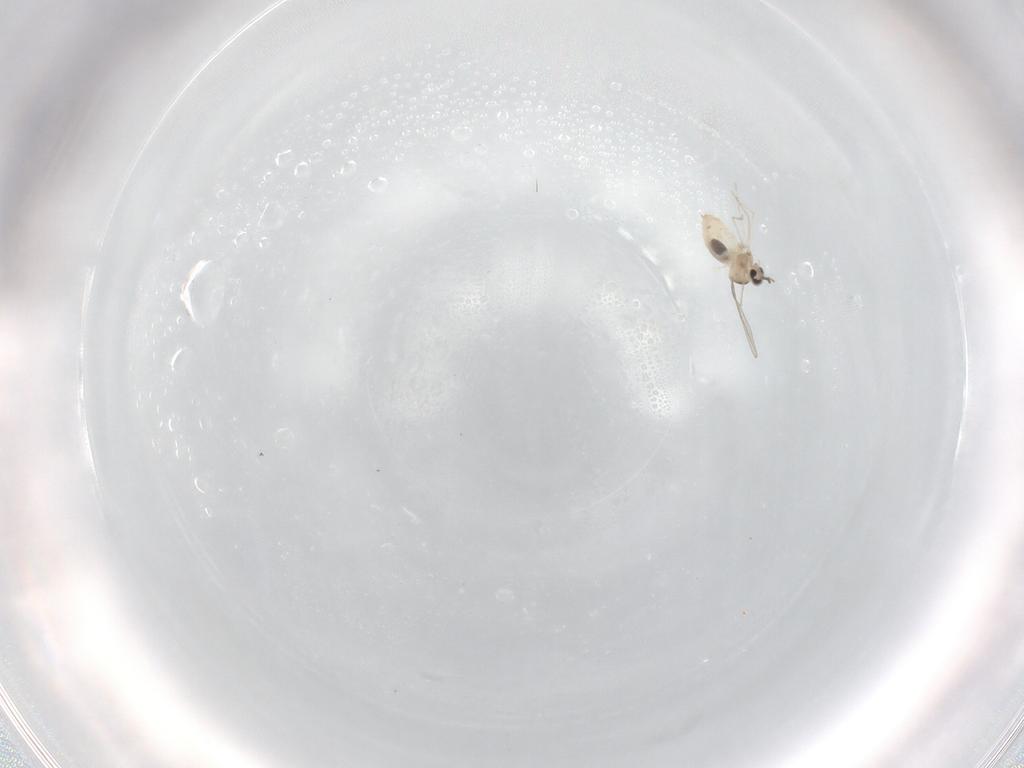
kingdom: Animalia
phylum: Arthropoda
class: Insecta
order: Diptera
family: Cecidomyiidae
